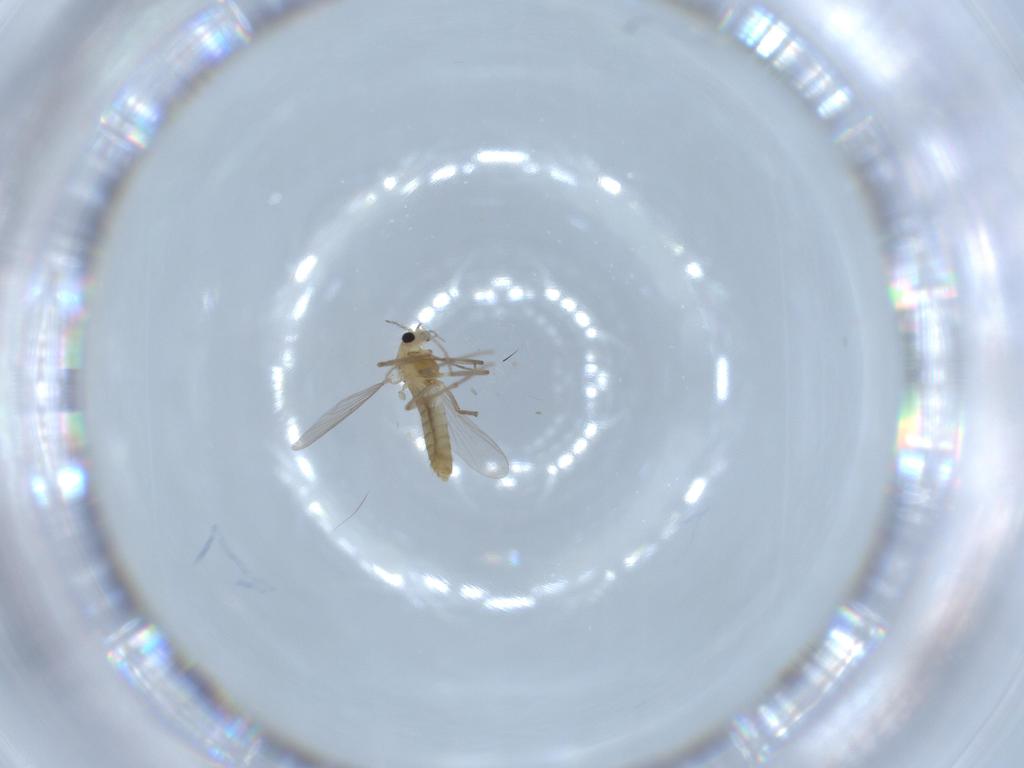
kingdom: Animalia
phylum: Arthropoda
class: Insecta
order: Diptera
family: Chironomidae
